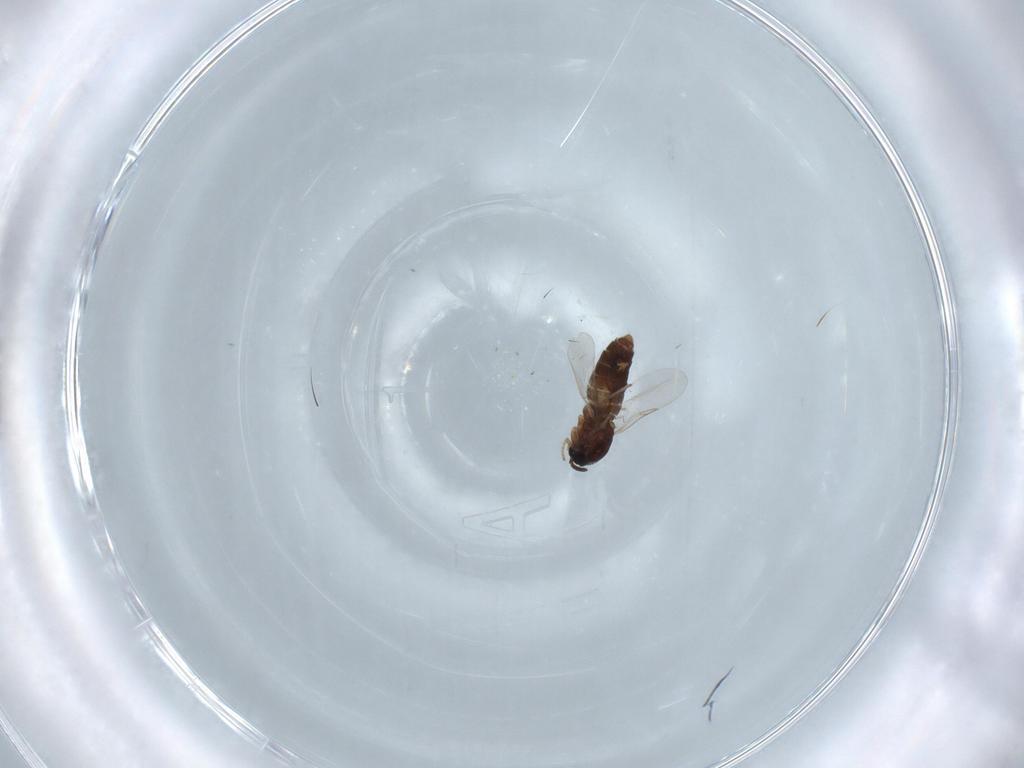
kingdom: Animalia
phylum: Arthropoda
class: Insecta
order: Diptera
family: Scatopsidae
